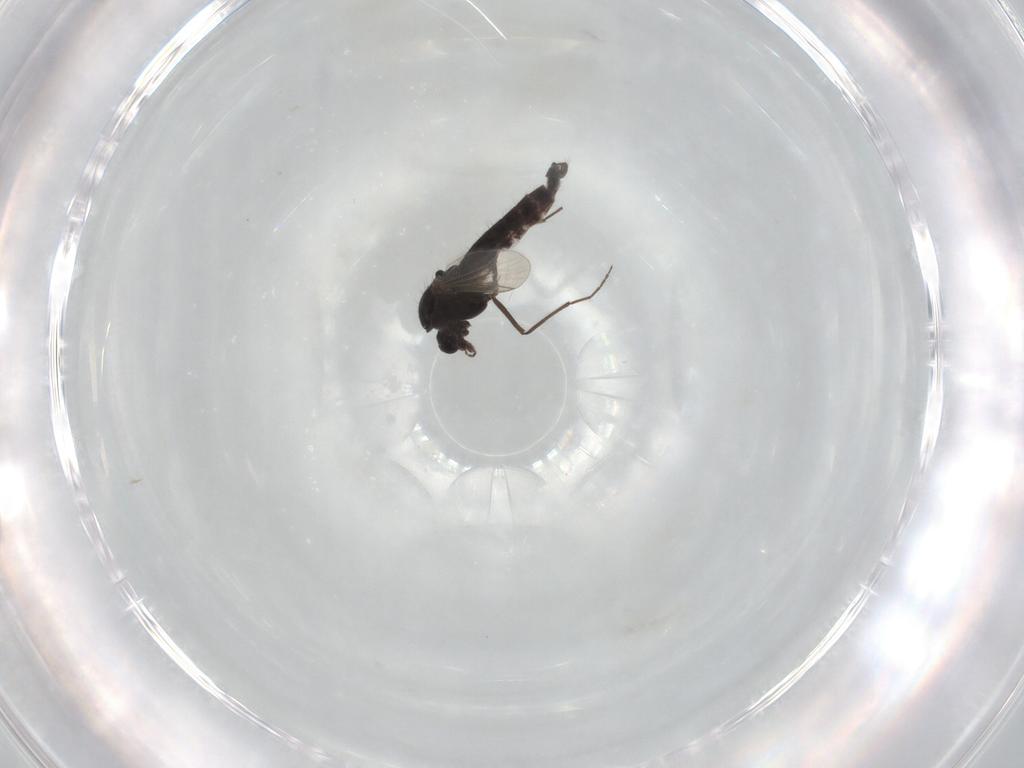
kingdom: Animalia
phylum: Arthropoda
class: Insecta
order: Diptera
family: Chironomidae
